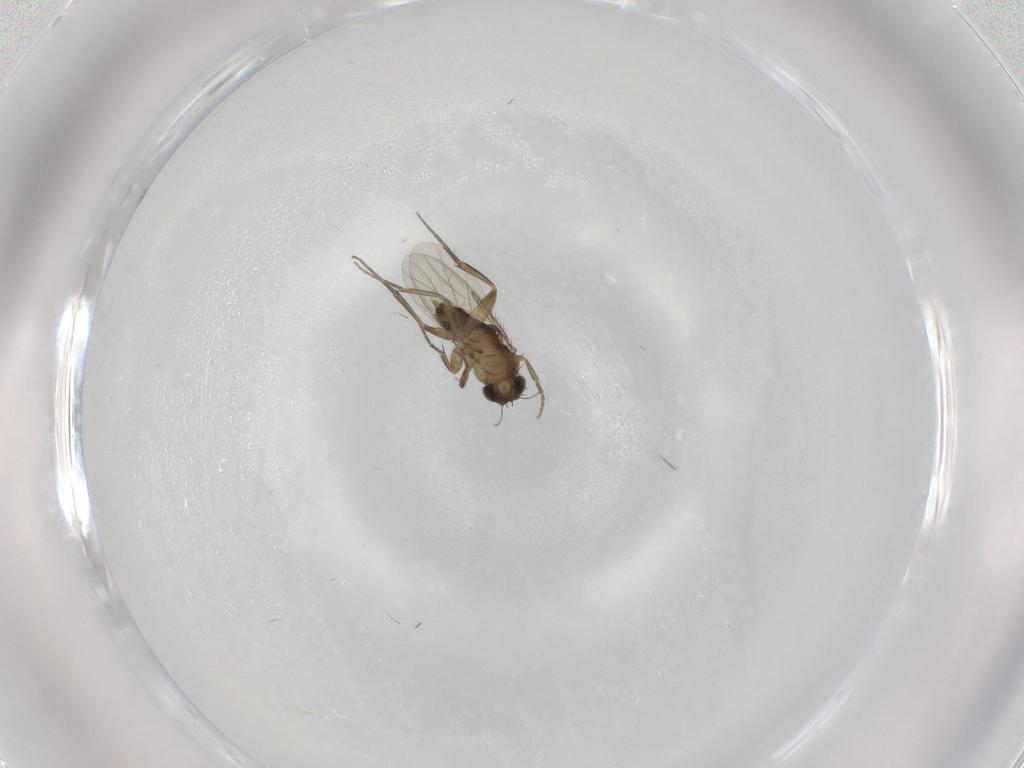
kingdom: Animalia
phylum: Arthropoda
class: Insecta
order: Diptera
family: Phoridae
